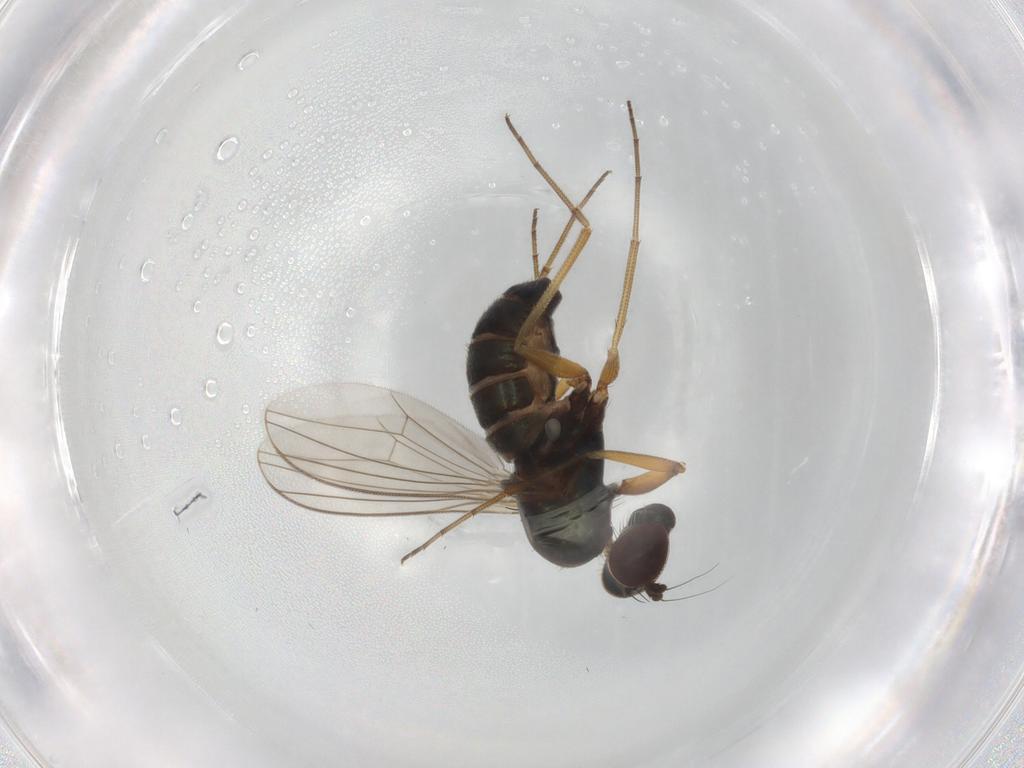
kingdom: Animalia
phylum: Arthropoda
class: Insecta
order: Diptera
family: Dolichopodidae
